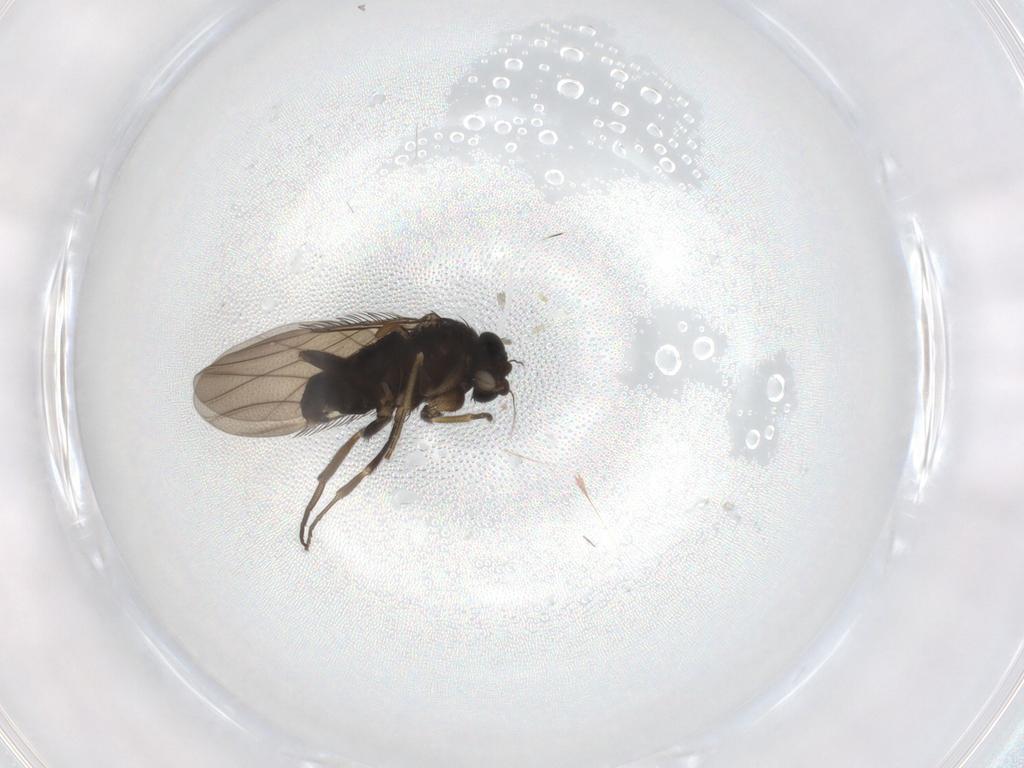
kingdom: Animalia
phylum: Arthropoda
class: Insecta
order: Diptera
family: Phoridae
